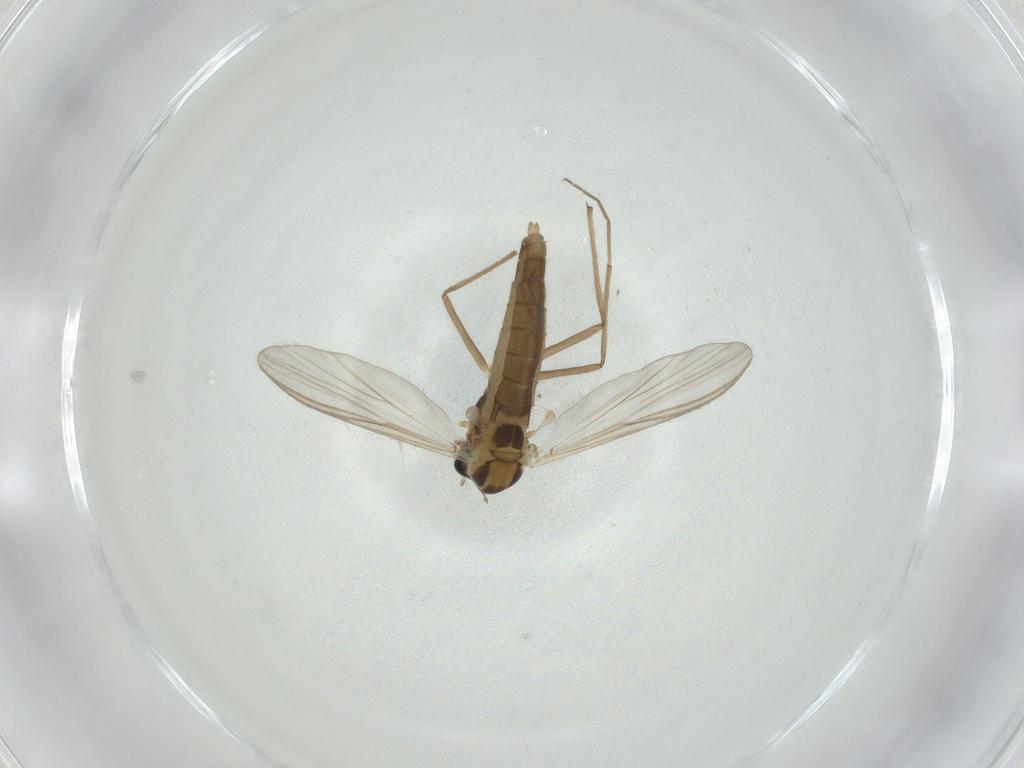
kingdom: Animalia
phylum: Arthropoda
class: Insecta
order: Diptera
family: Chironomidae
